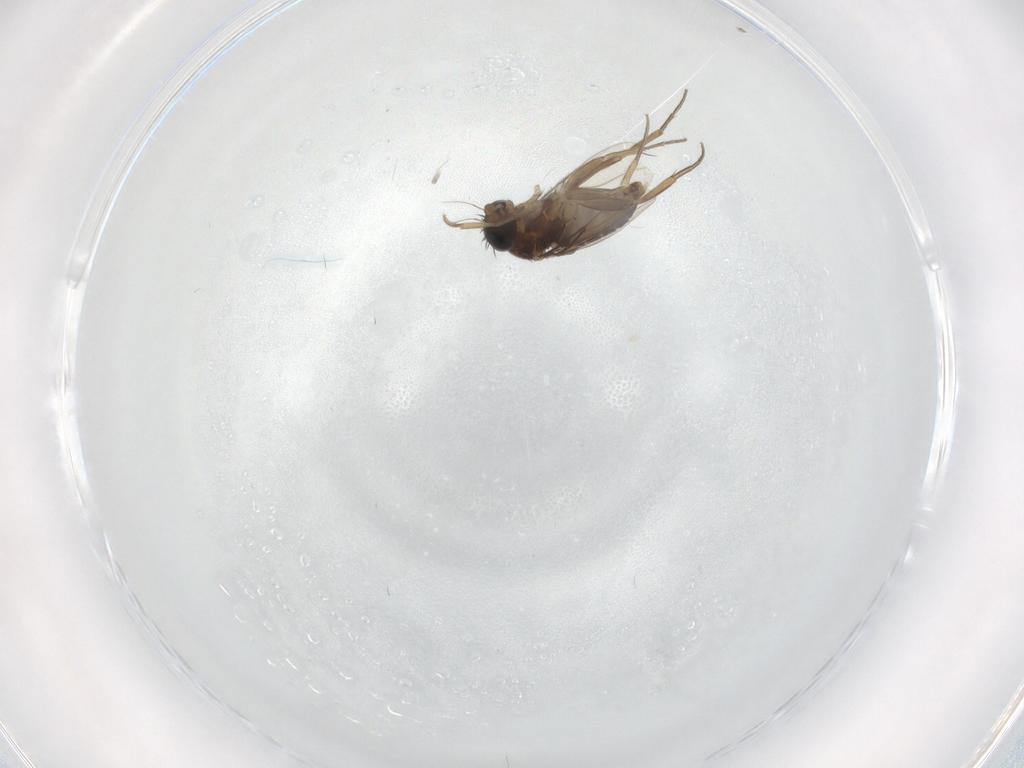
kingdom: Animalia
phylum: Arthropoda
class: Insecta
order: Diptera
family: Phoridae
